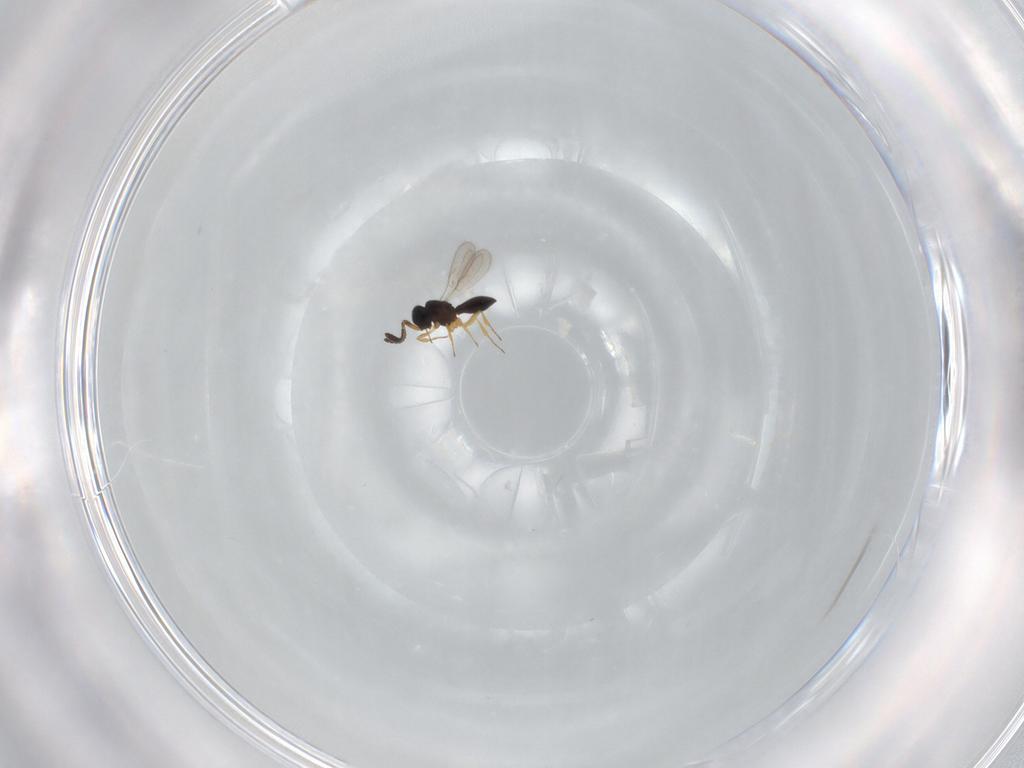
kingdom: Animalia
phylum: Arthropoda
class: Insecta
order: Hymenoptera
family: Scelionidae
